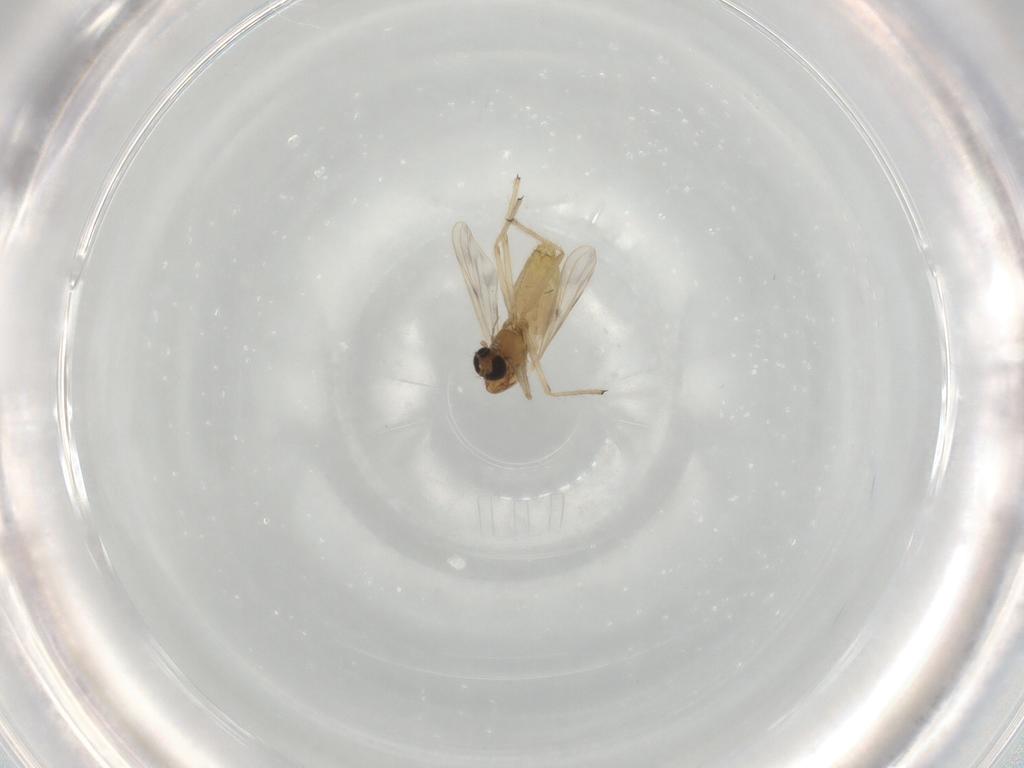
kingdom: Animalia
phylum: Arthropoda
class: Insecta
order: Diptera
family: Chironomidae
